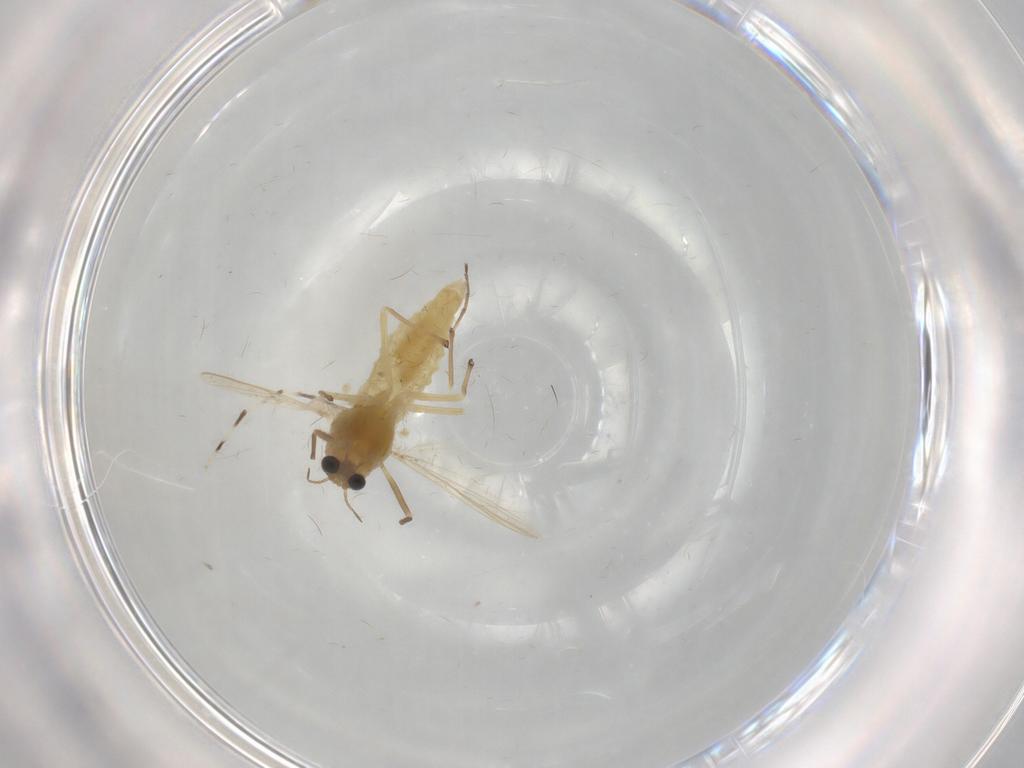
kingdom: Animalia
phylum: Arthropoda
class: Insecta
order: Diptera
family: Chironomidae
